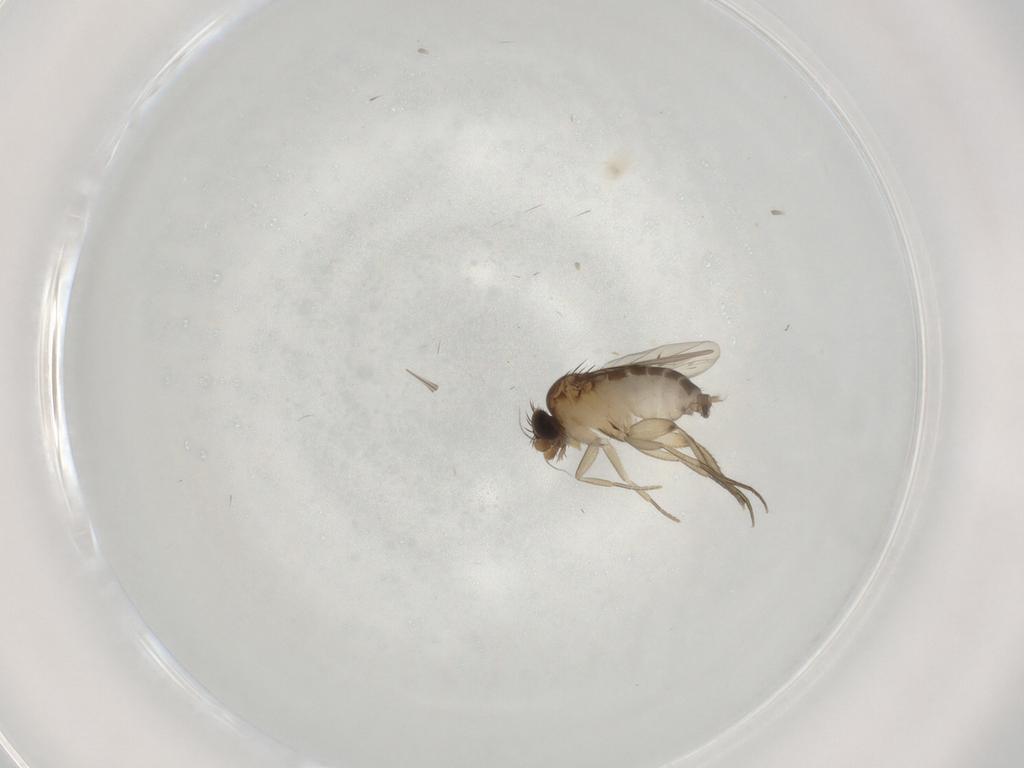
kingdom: Animalia
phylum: Arthropoda
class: Insecta
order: Diptera
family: Phoridae
